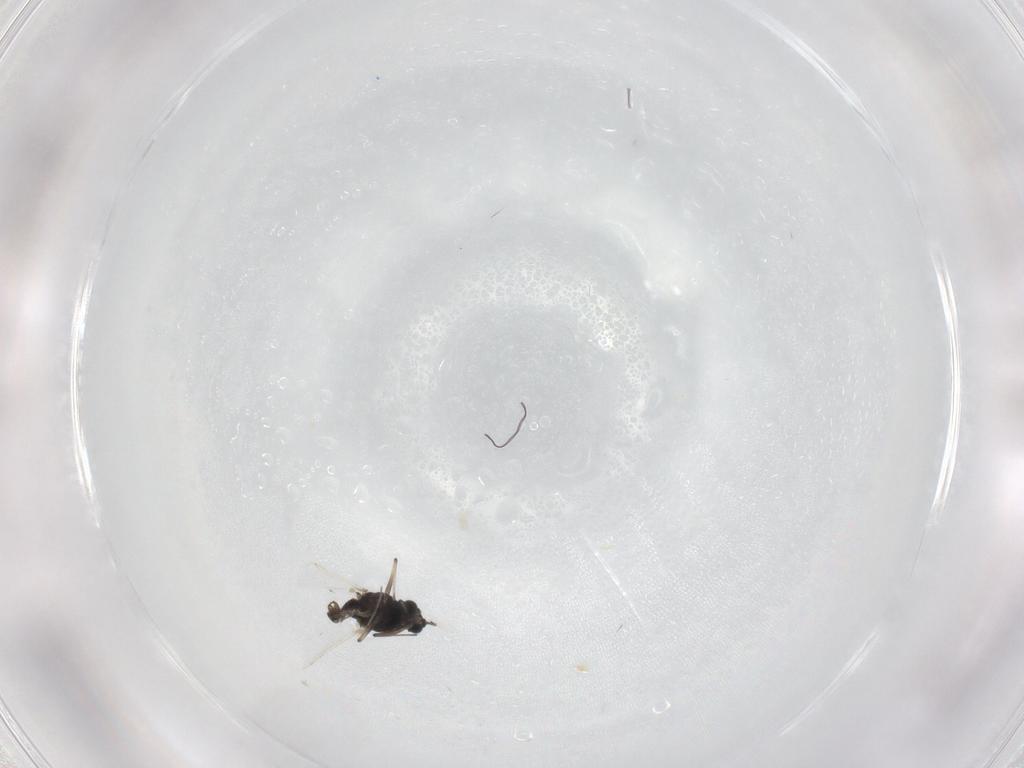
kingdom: Animalia
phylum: Arthropoda
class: Insecta
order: Diptera
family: Chironomidae
